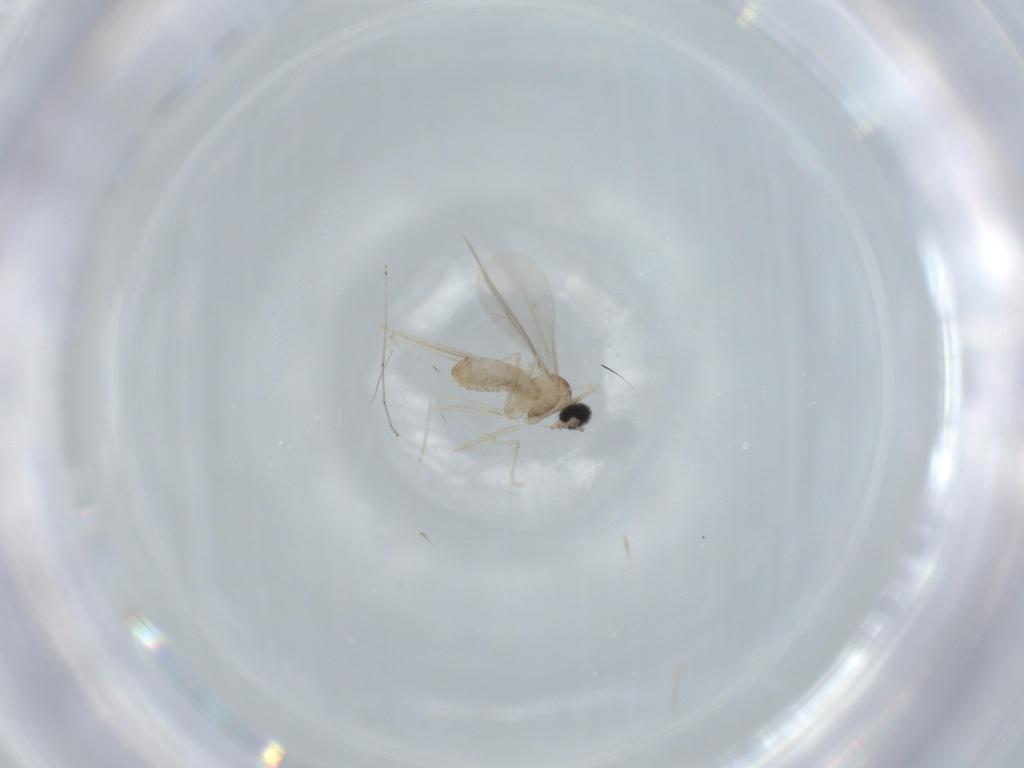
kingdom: Animalia
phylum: Arthropoda
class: Insecta
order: Diptera
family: Cecidomyiidae
